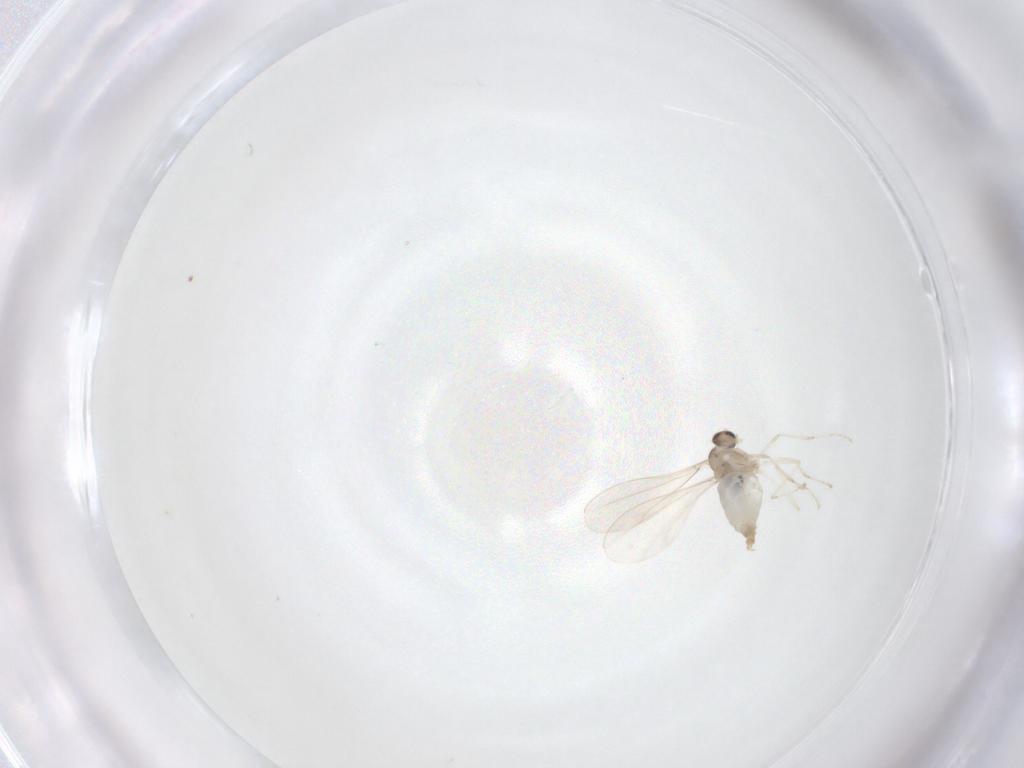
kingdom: Animalia
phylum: Arthropoda
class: Insecta
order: Diptera
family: Cecidomyiidae
